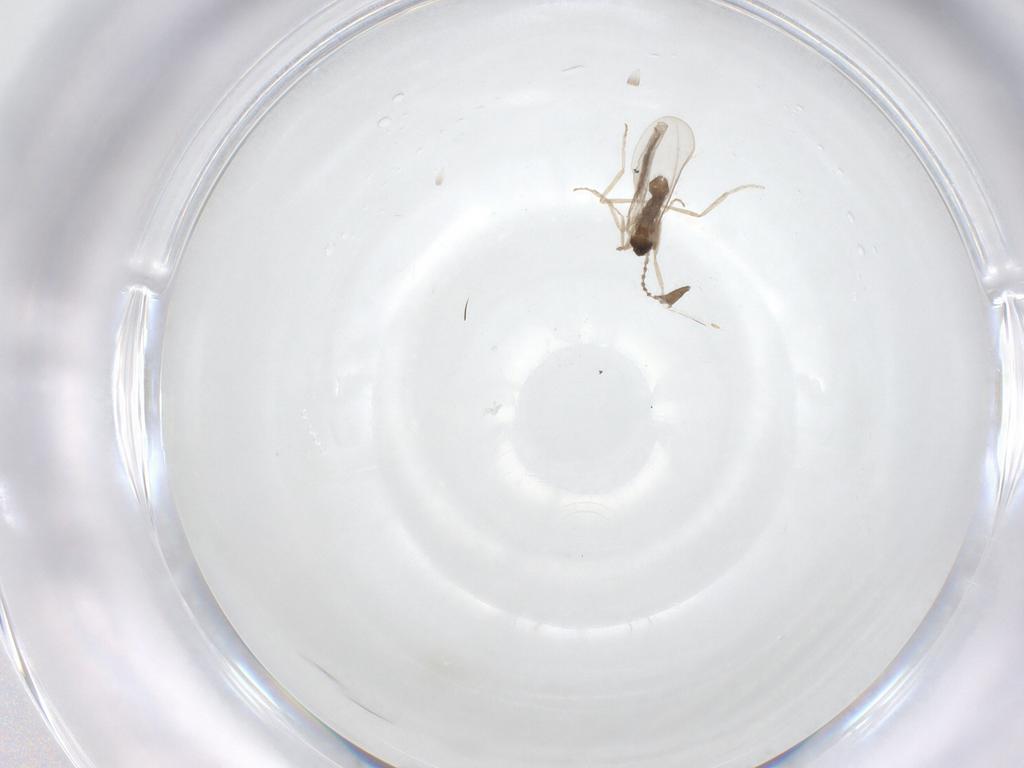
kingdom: Animalia
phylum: Arthropoda
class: Insecta
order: Diptera
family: Cecidomyiidae
